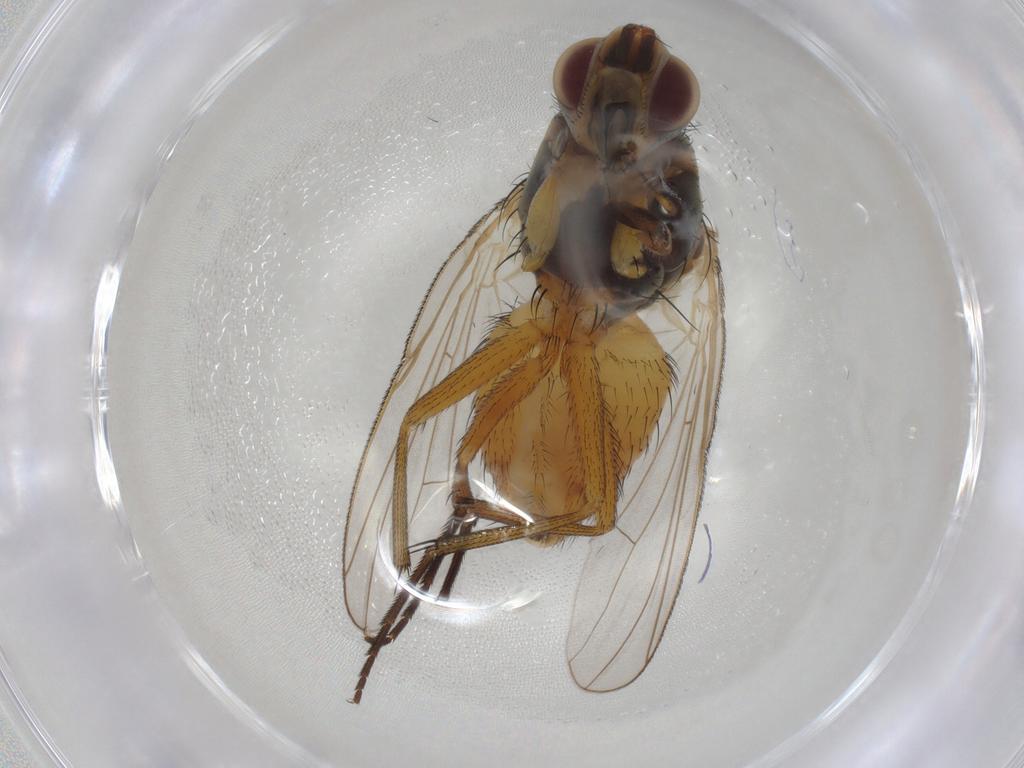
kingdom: Animalia
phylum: Arthropoda
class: Insecta
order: Diptera
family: Muscidae
